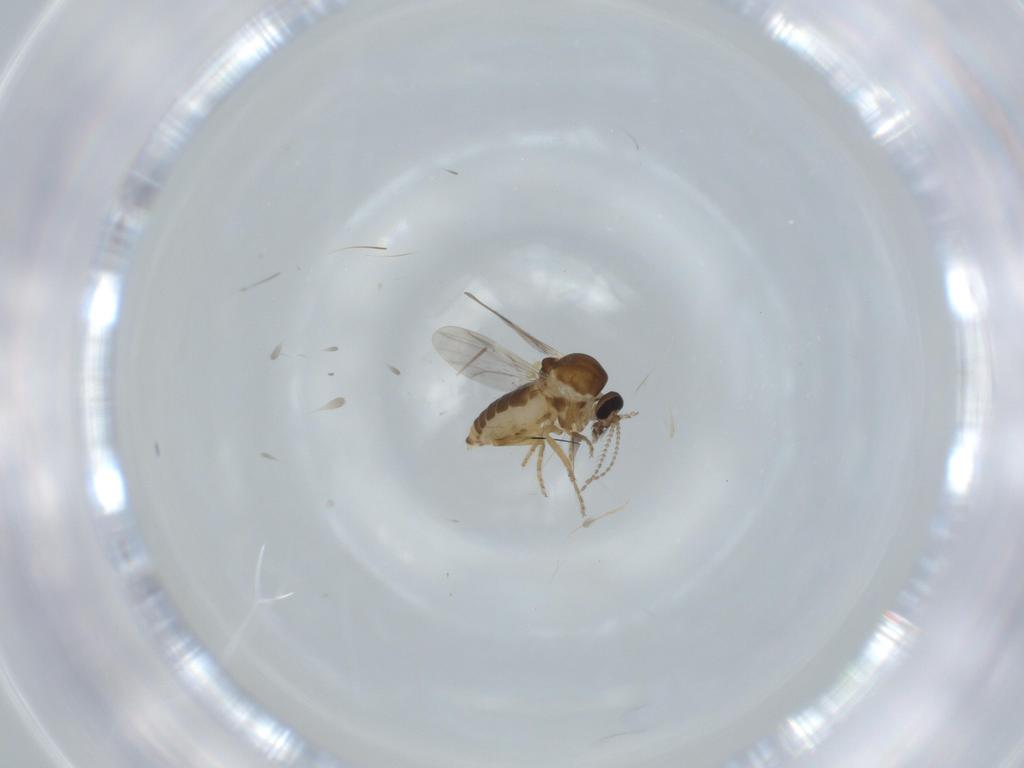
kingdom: Animalia
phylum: Arthropoda
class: Insecta
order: Diptera
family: Ceratopogonidae
